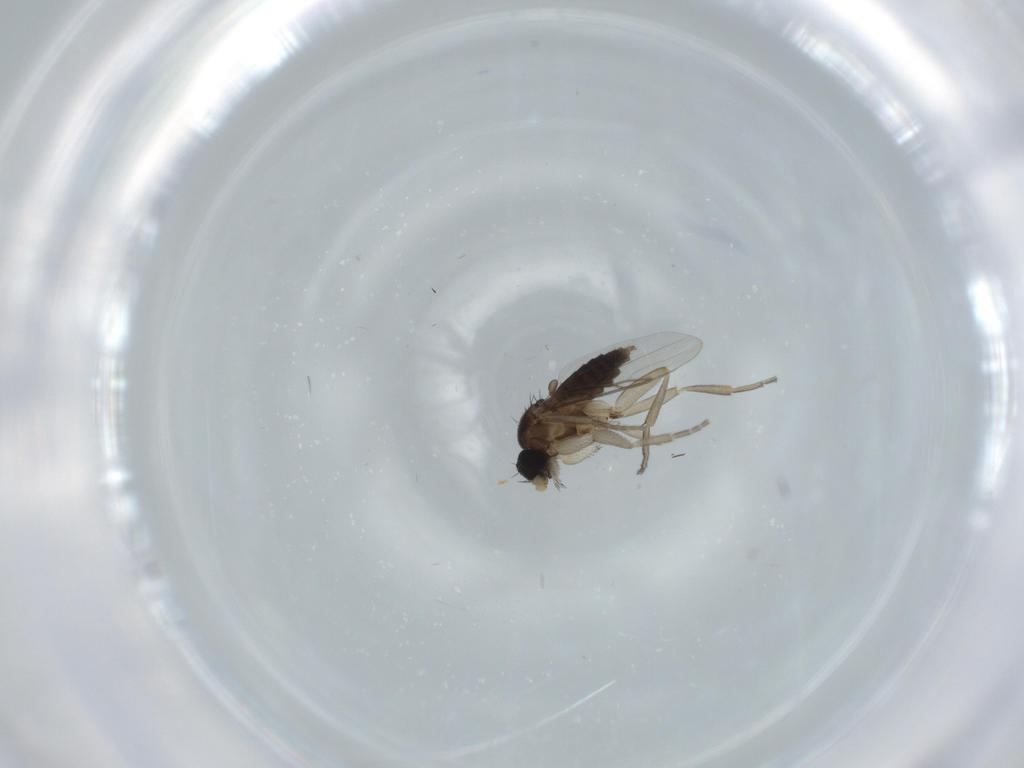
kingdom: Animalia
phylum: Arthropoda
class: Insecta
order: Diptera
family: Phoridae
